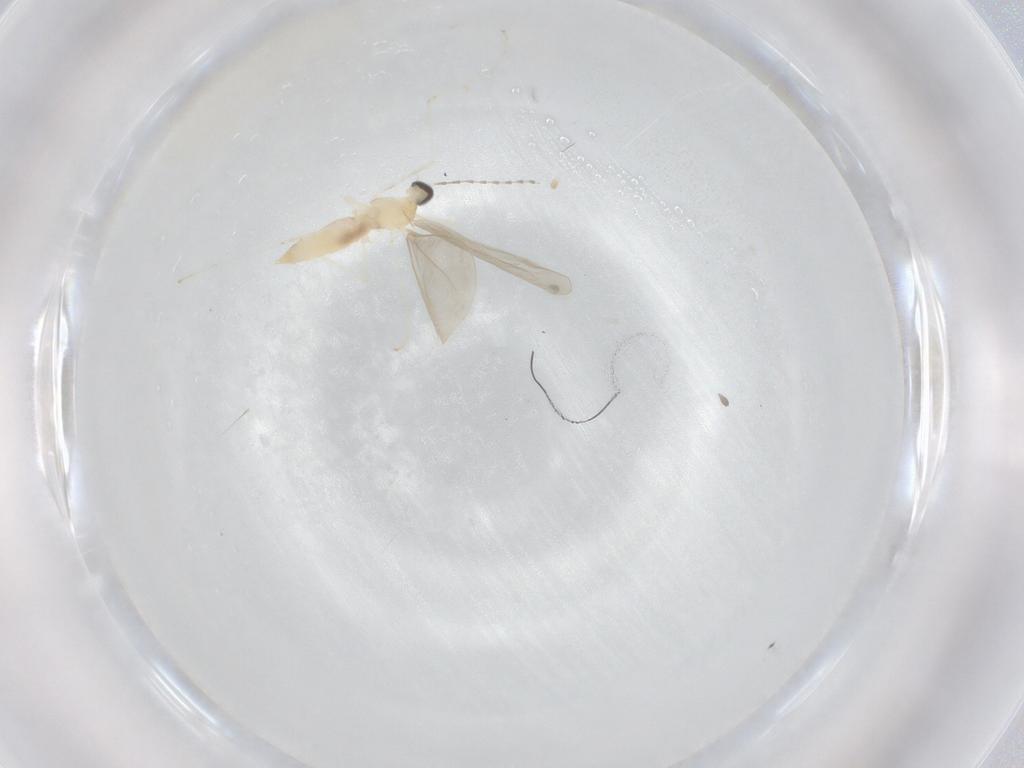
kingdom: Animalia
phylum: Arthropoda
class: Insecta
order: Diptera
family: Cecidomyiidae
